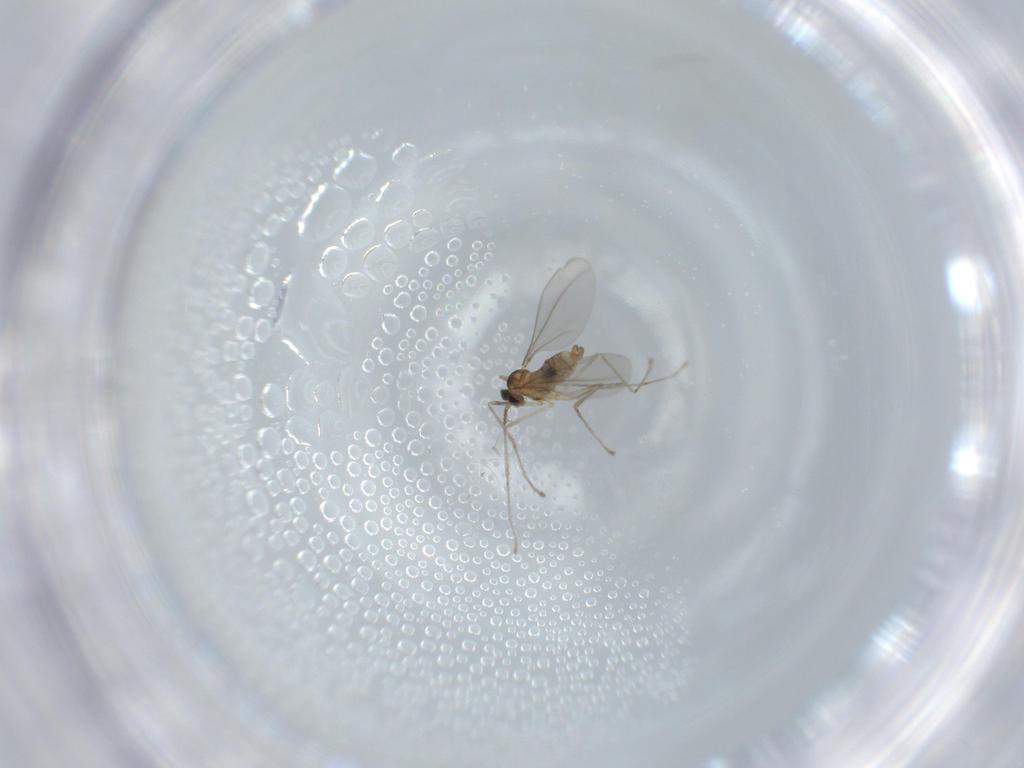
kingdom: Animalia
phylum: Arthropoda
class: Insecta
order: Diptera
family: Cecidomyiidae
